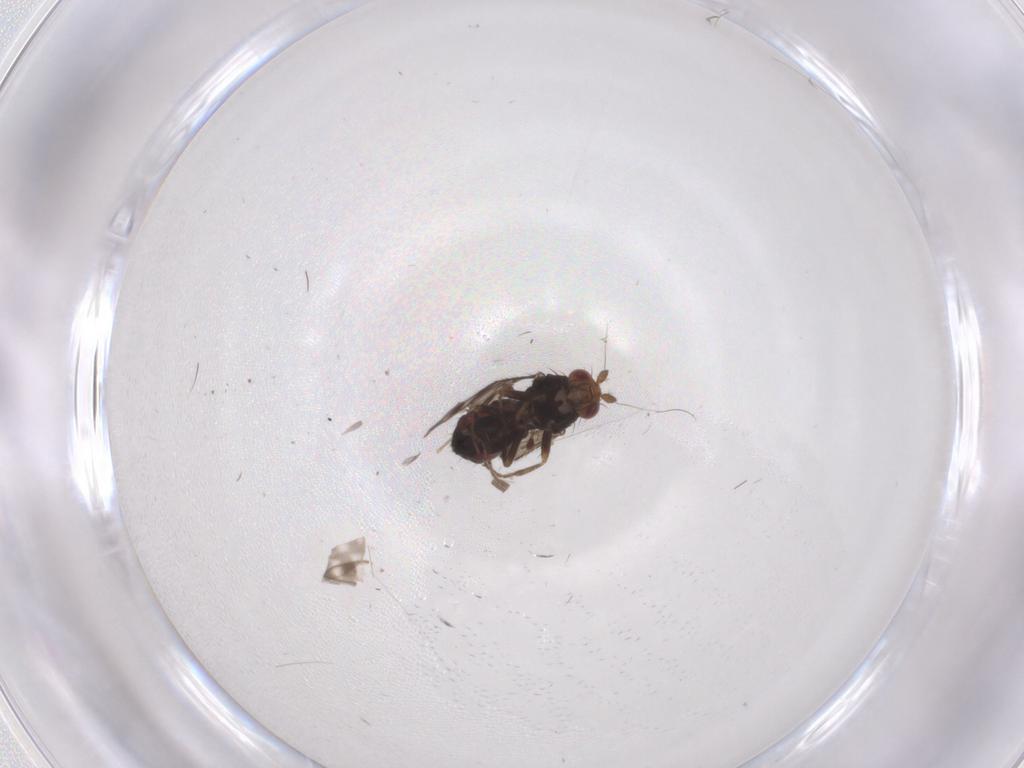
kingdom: Animalia
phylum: Arthropoda
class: Insecta
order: Diptera
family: Sphaeroceridae
